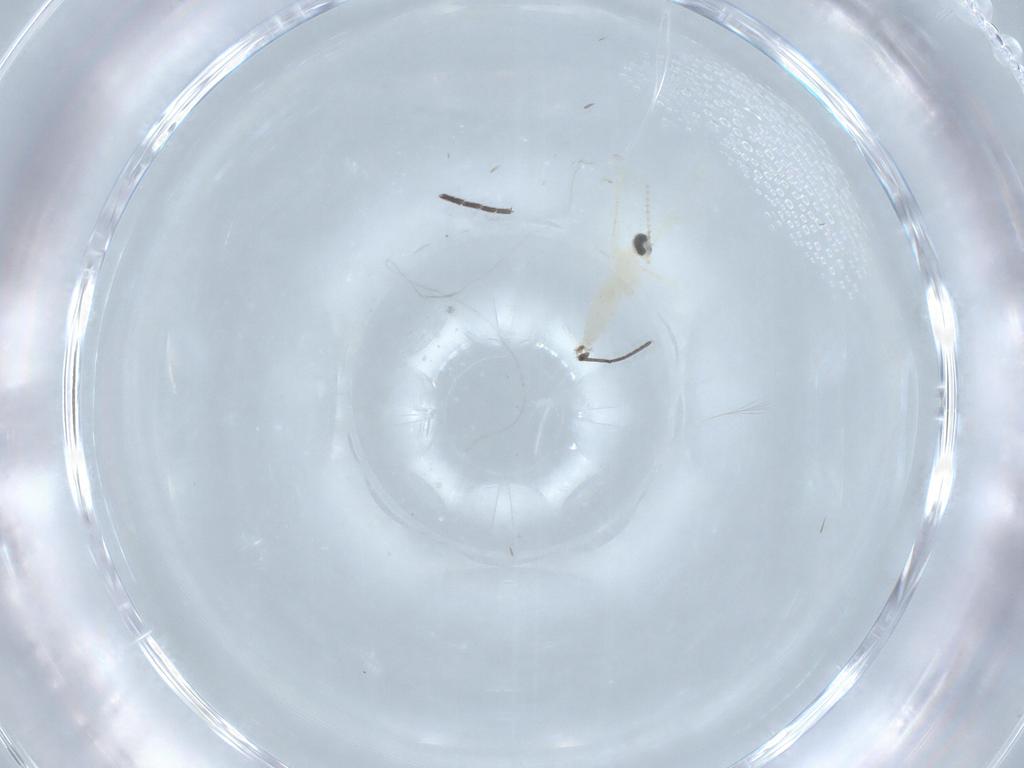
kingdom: Animalia
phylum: Arthropoda
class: Insecta
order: Diptera
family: Cecidomyiidae
